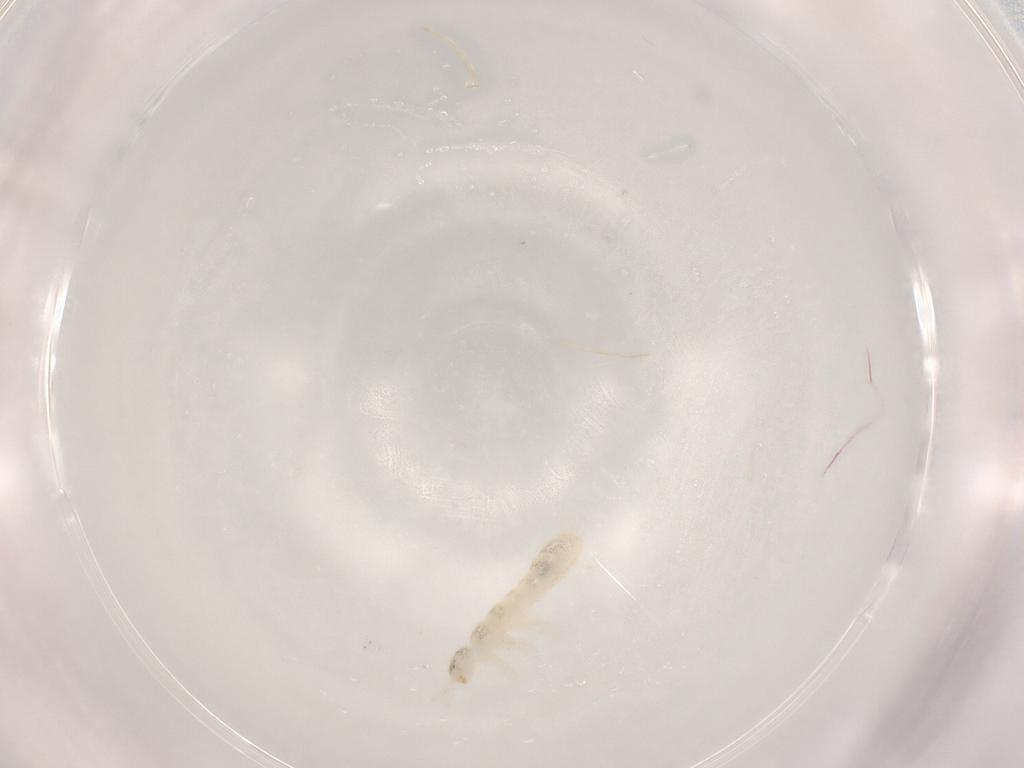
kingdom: Animalia
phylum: Arthropoda
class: Collembola
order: Entomobryomorpha
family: Isotomidae
